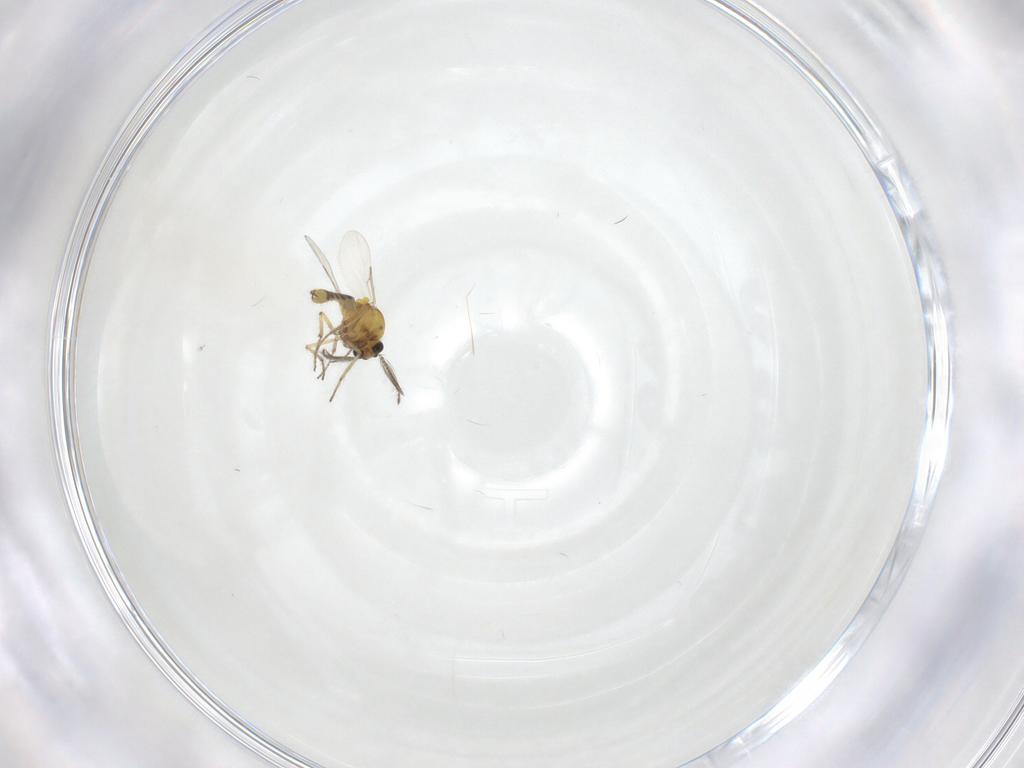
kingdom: Animalia
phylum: Arthropoda
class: Insecta
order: Diptera
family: Ceratopogonidae
